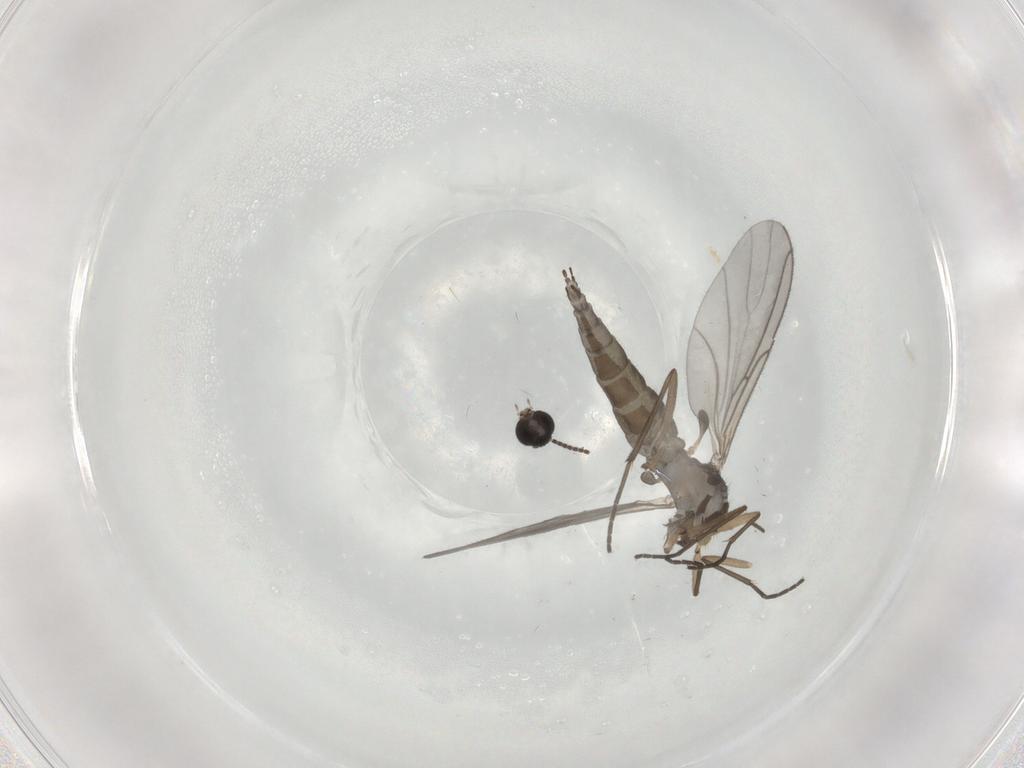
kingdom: Animalia
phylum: Arthropoda
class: Insecta
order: Diptera
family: Sciaridae
